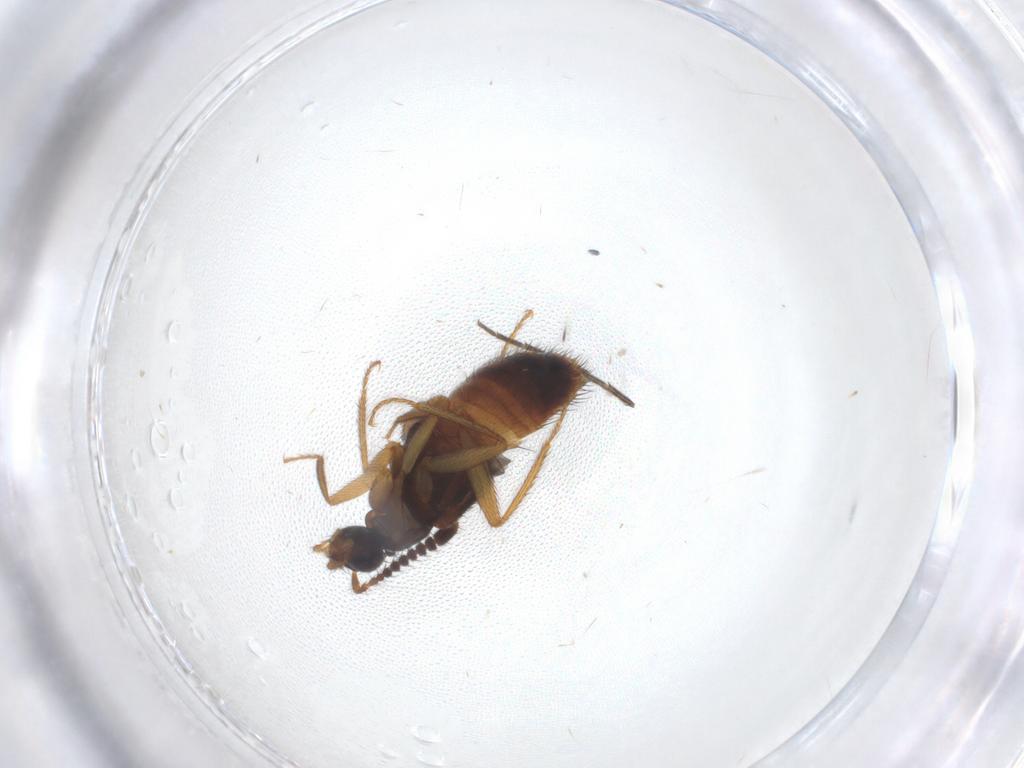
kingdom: Animalia
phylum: Arthropoda
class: Insecta
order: Coleoptera
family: Staphylinidae
